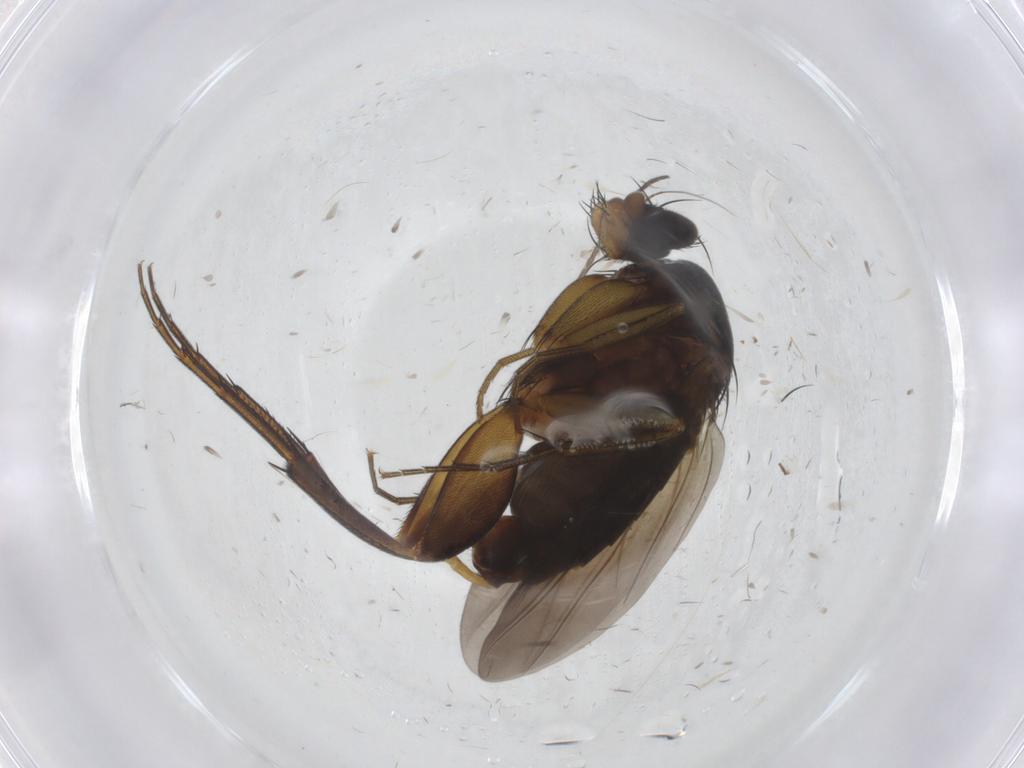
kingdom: Animalia
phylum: Arthropoda
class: Insecta
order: Diptera
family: Phoridae
